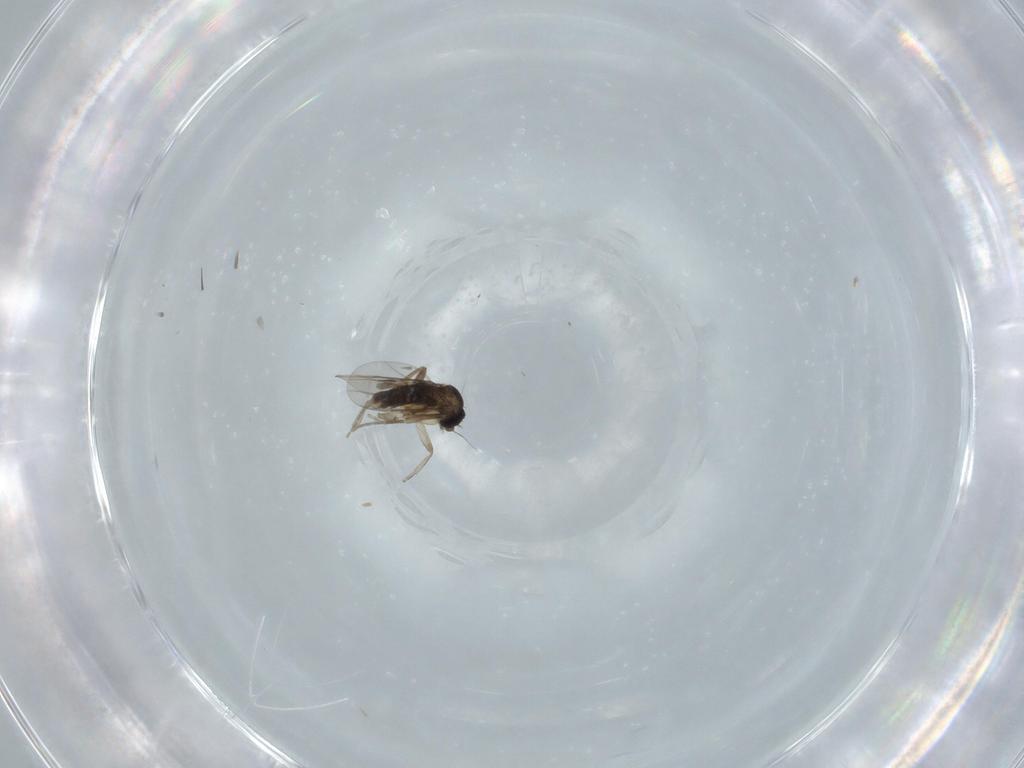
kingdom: Animalia
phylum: Arthropoda
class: Insecta
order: Diptera
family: Phoridae
